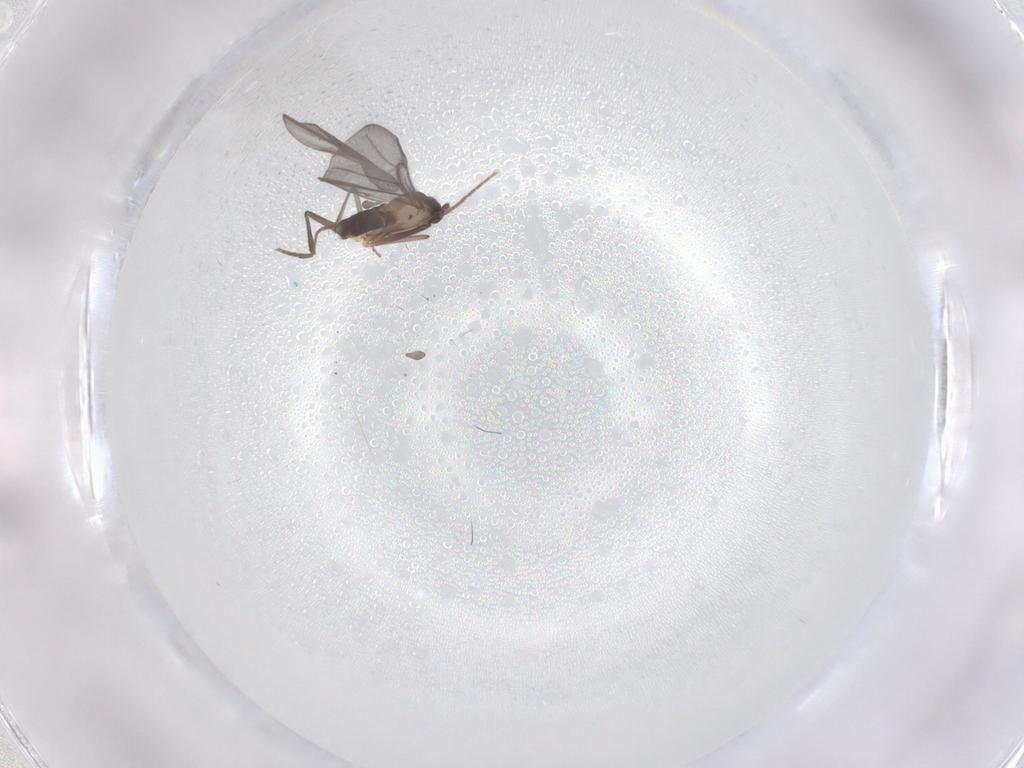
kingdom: Animalia
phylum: Arthropoda
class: Insecta
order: Diptera
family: Phoridae
